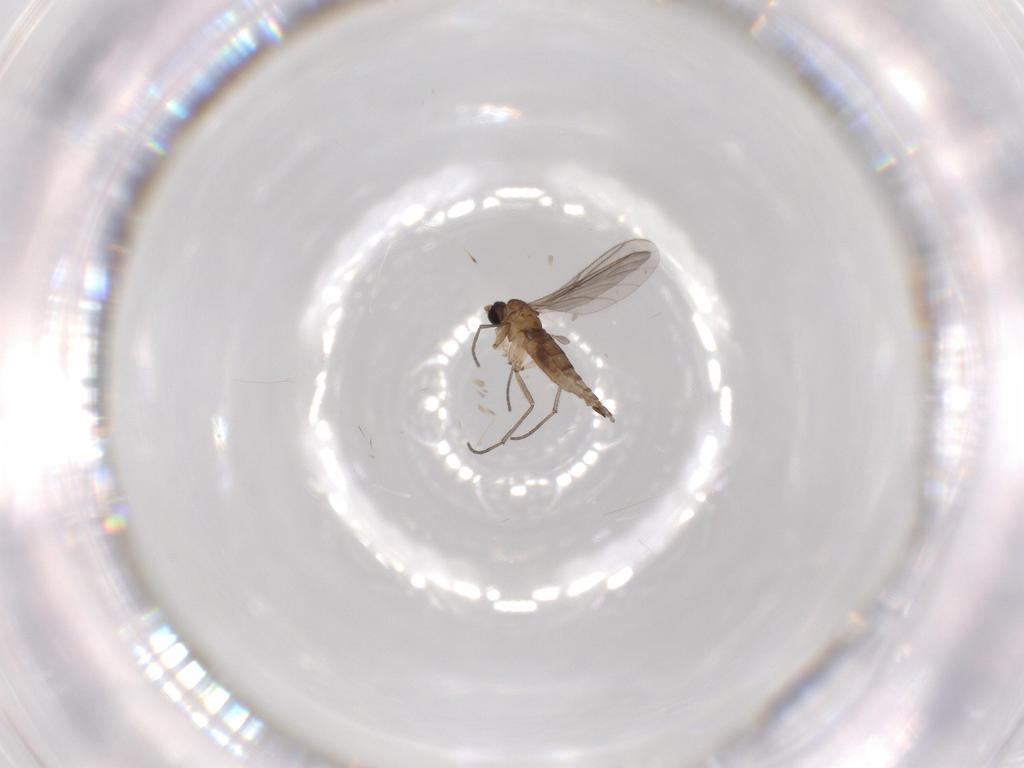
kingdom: Animalia
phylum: Arthropoda
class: Insecta
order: Diptera
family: Sciaridae
